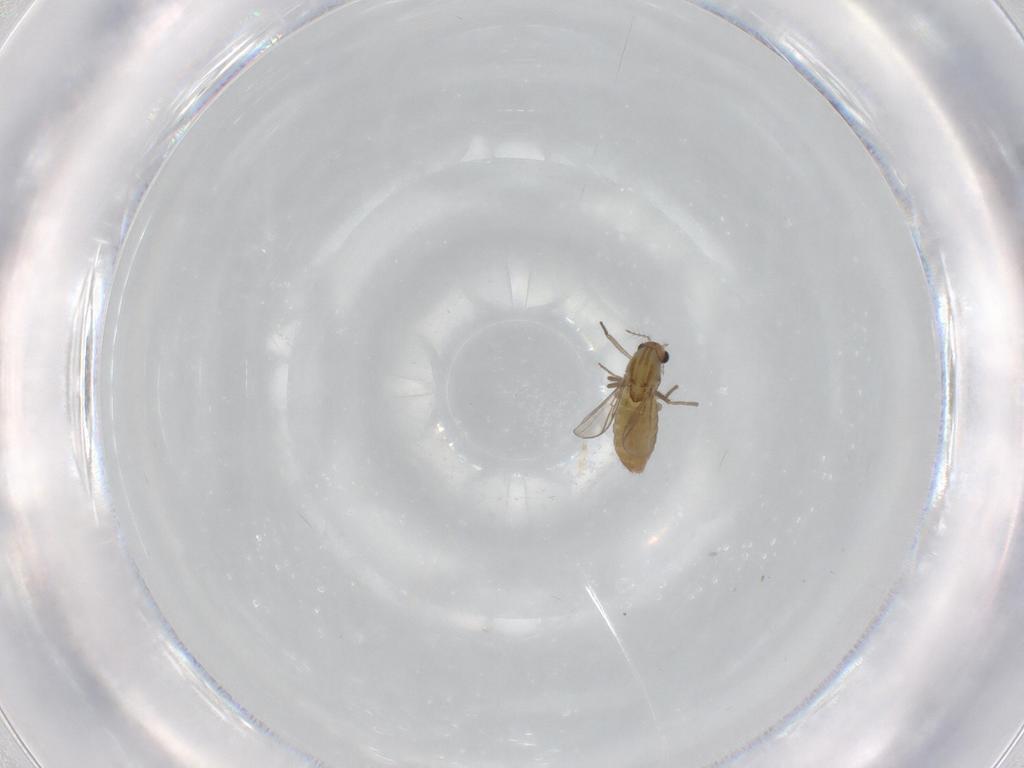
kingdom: Animalia
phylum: Arthropoda
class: Insecta
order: Diptera
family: Chironomidae
